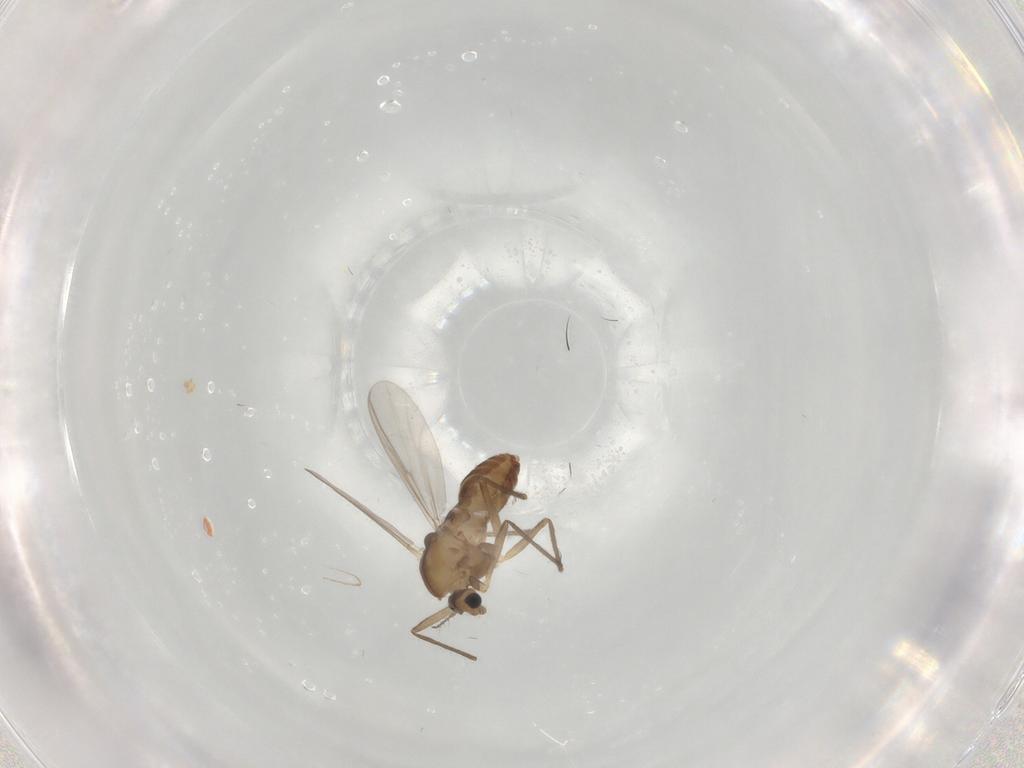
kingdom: Animalia
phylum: Arthropoda
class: Insecta
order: Diptera
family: Chironomidae
